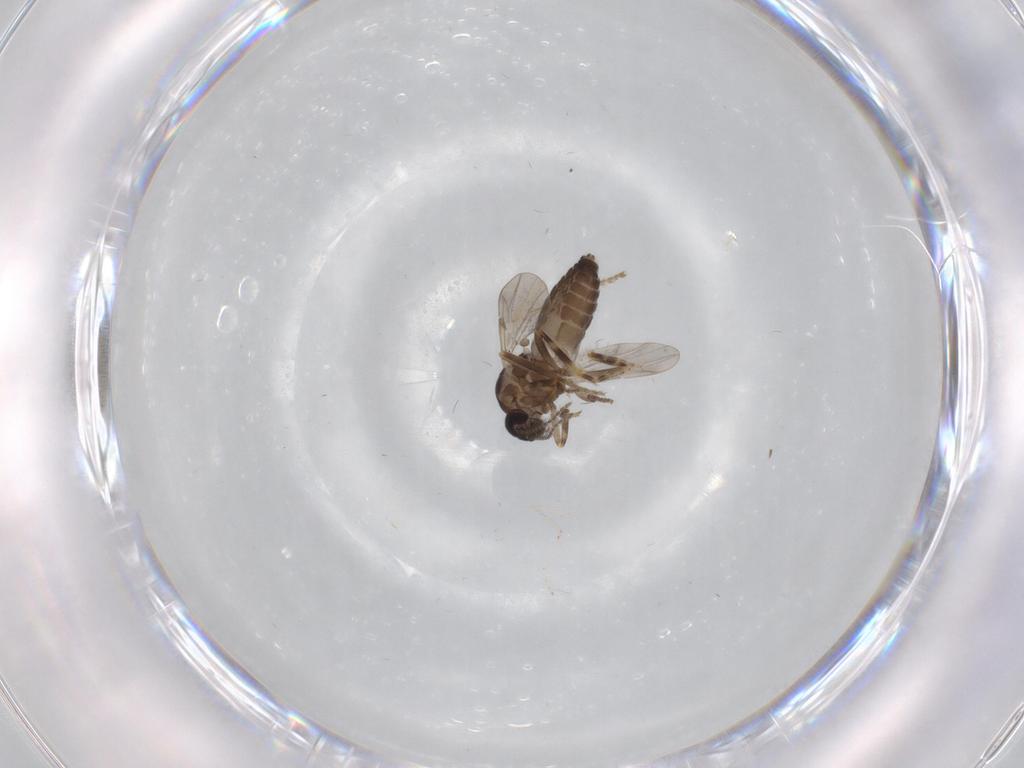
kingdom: Animalia
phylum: Arthropoda
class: Insecta
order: Diptera
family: Ceratopogonidae
